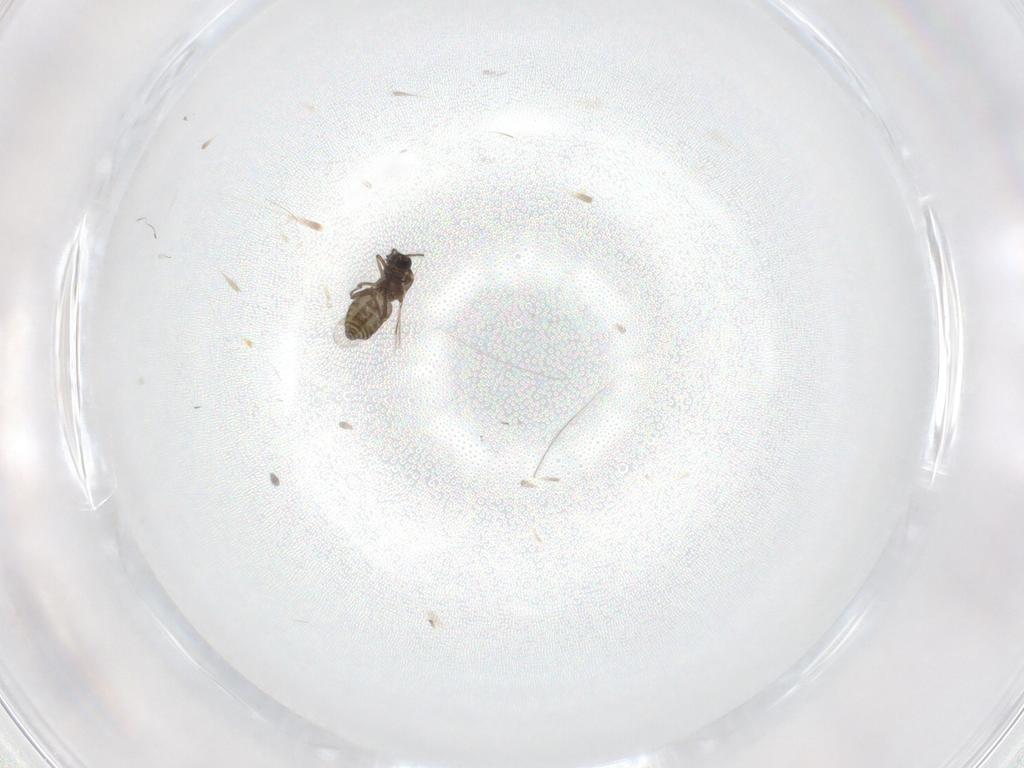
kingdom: Animalia
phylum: Arthropoda
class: Insecta
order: Diptera
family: Ceratopogonidae
